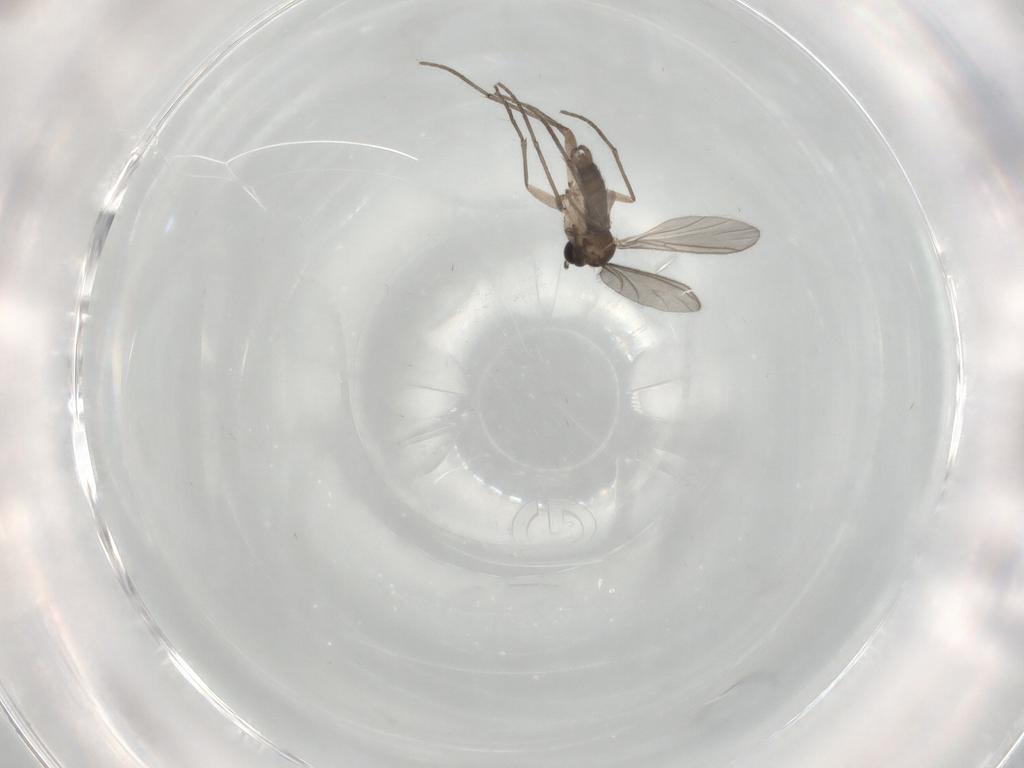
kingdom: Animalia
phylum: Arthropoda
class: Insecta
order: Diptera
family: Sciaridae
